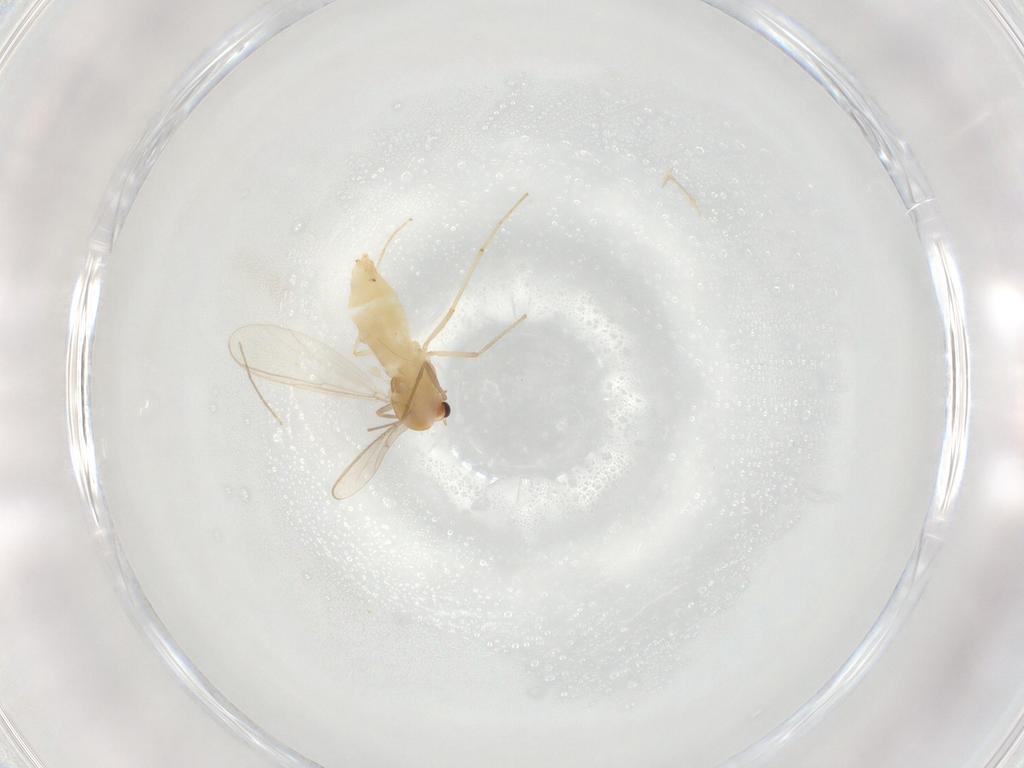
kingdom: Animalia
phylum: Arthropoda
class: Insecta
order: Diptera
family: Chironomidae
